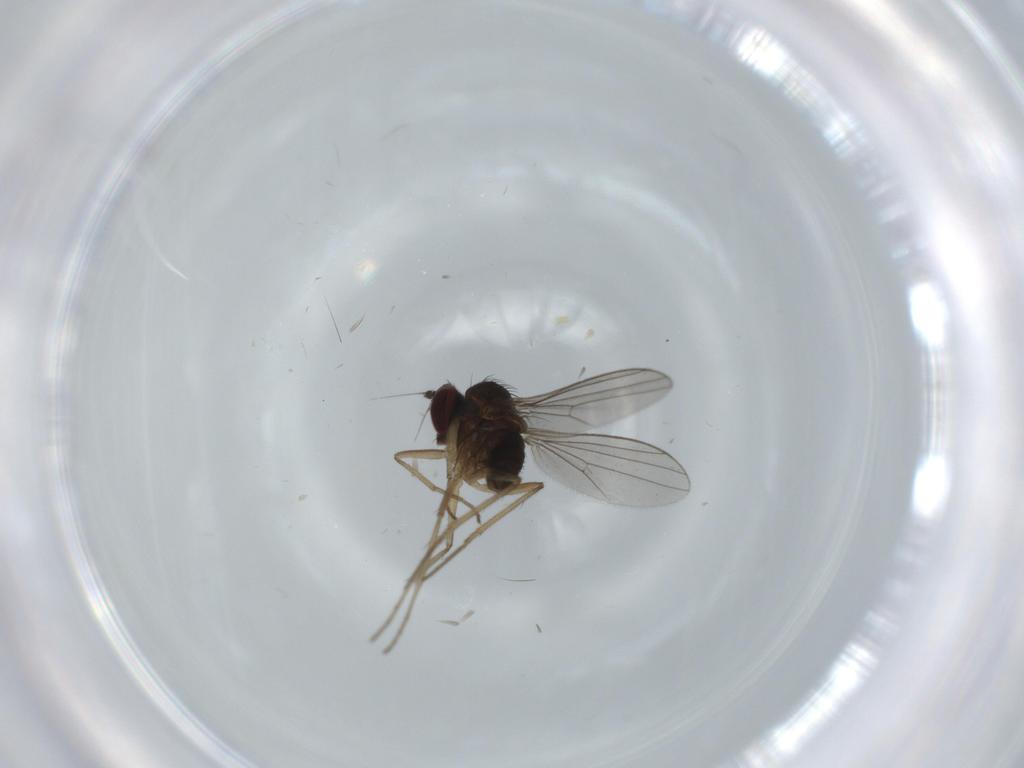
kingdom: Animalia
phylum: Arthropoda
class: Insecta
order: Diptera
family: Dolichopodidae
